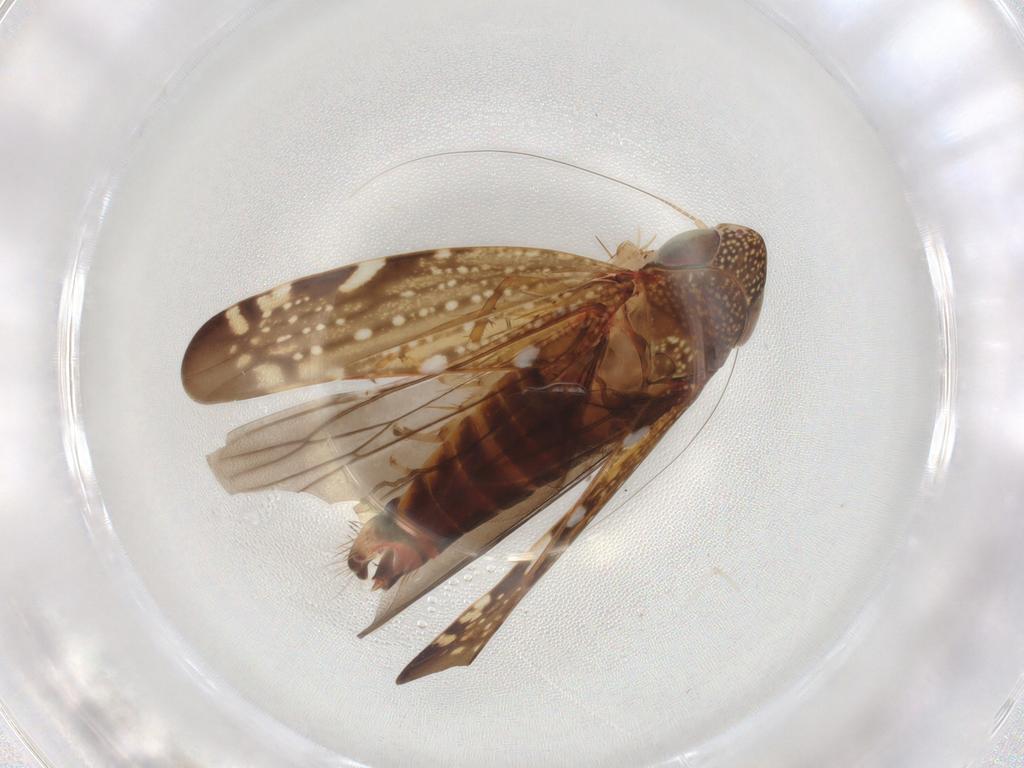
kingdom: Animalia
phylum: Arthropoda
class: Insecta
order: Hemiptera
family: Cicadellidae
